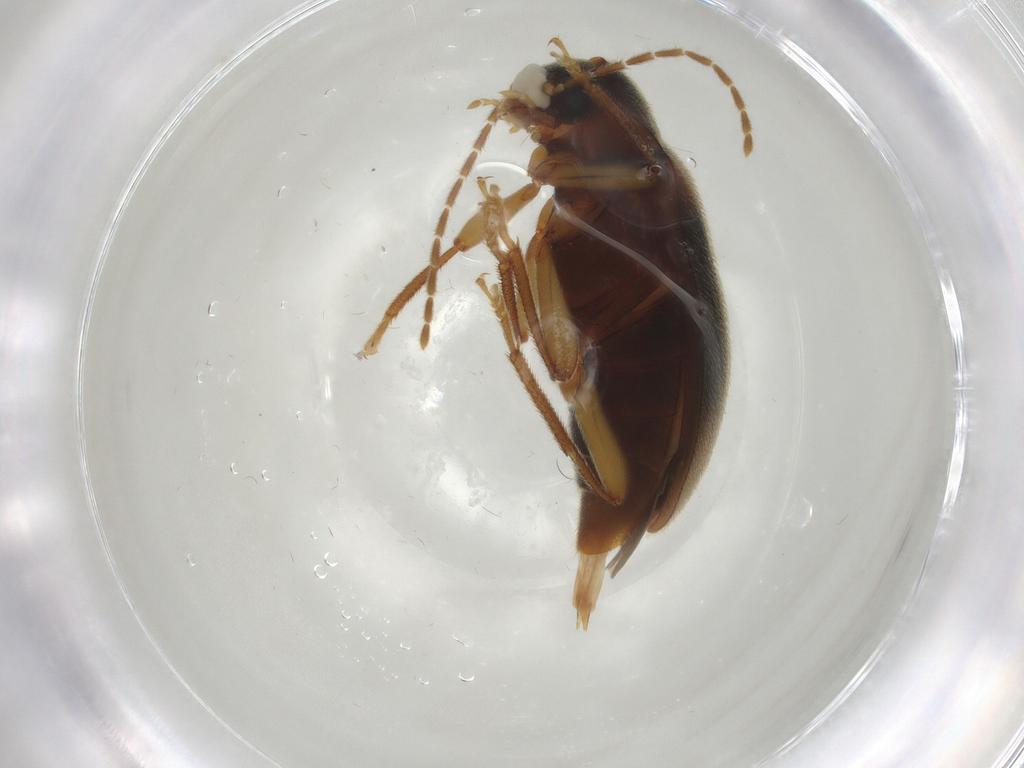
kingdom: Animalia
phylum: Arthropoda
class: Insecta
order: Coleoptera
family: Ptilodactylidae
